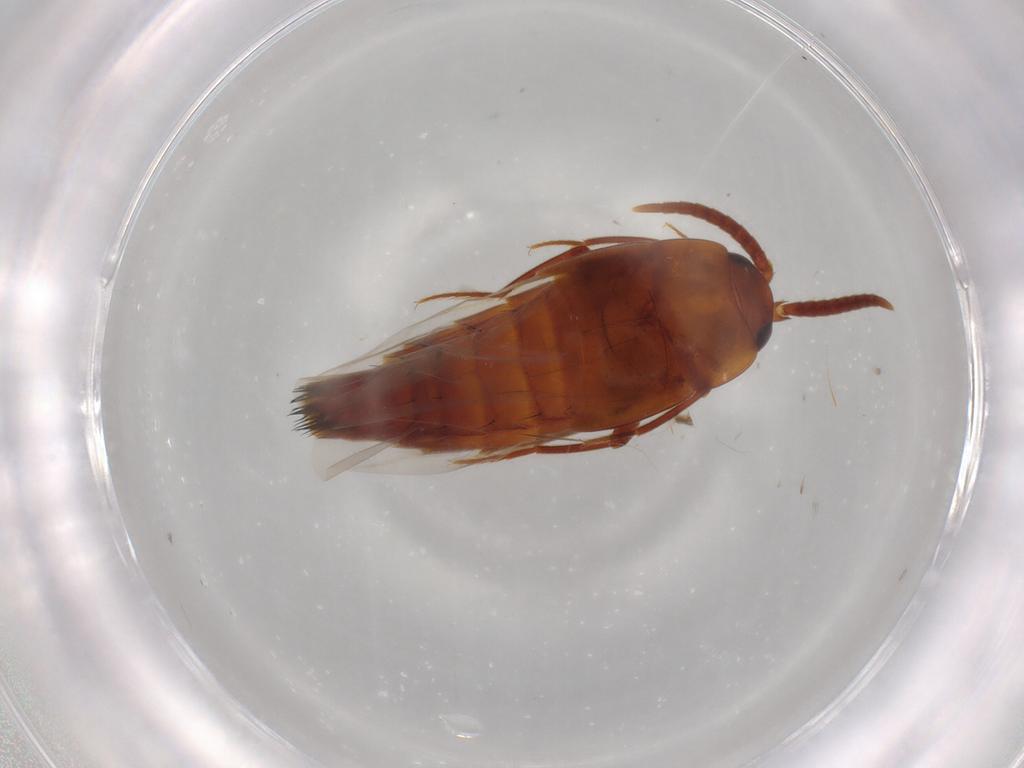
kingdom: Animalia
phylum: Arthropoda
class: Insecta
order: Coleoptera
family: Staphylinidae
